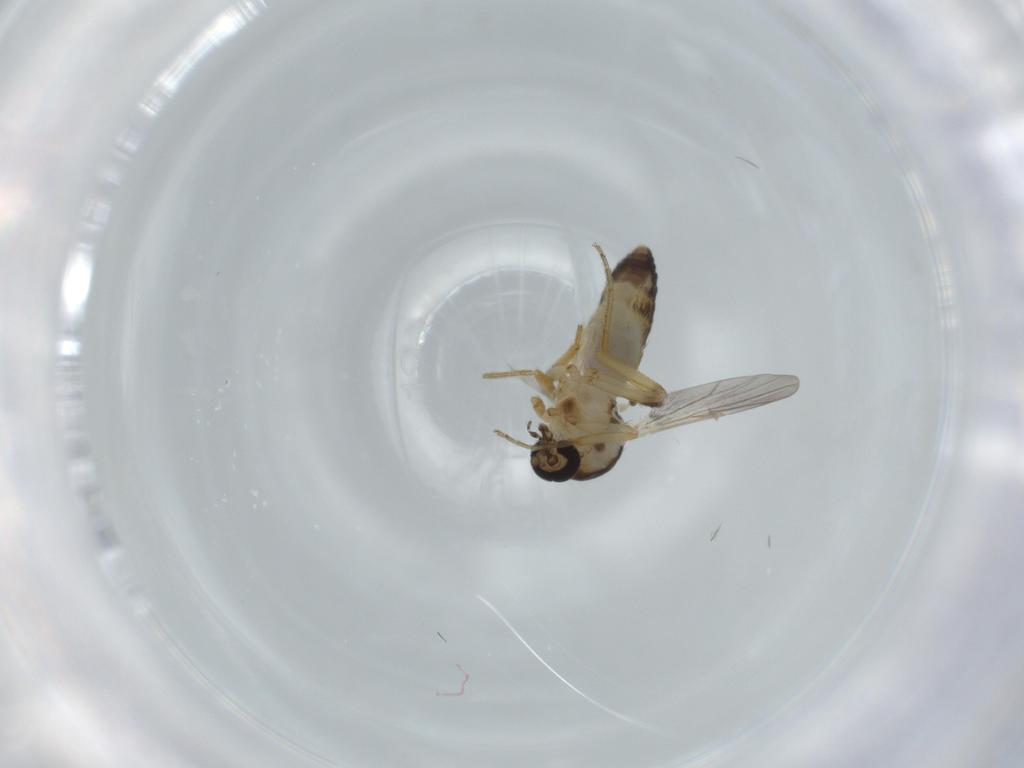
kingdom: Animalia
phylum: Arthropoda
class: Insecta
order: Diptera
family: Ceratopogonidae
